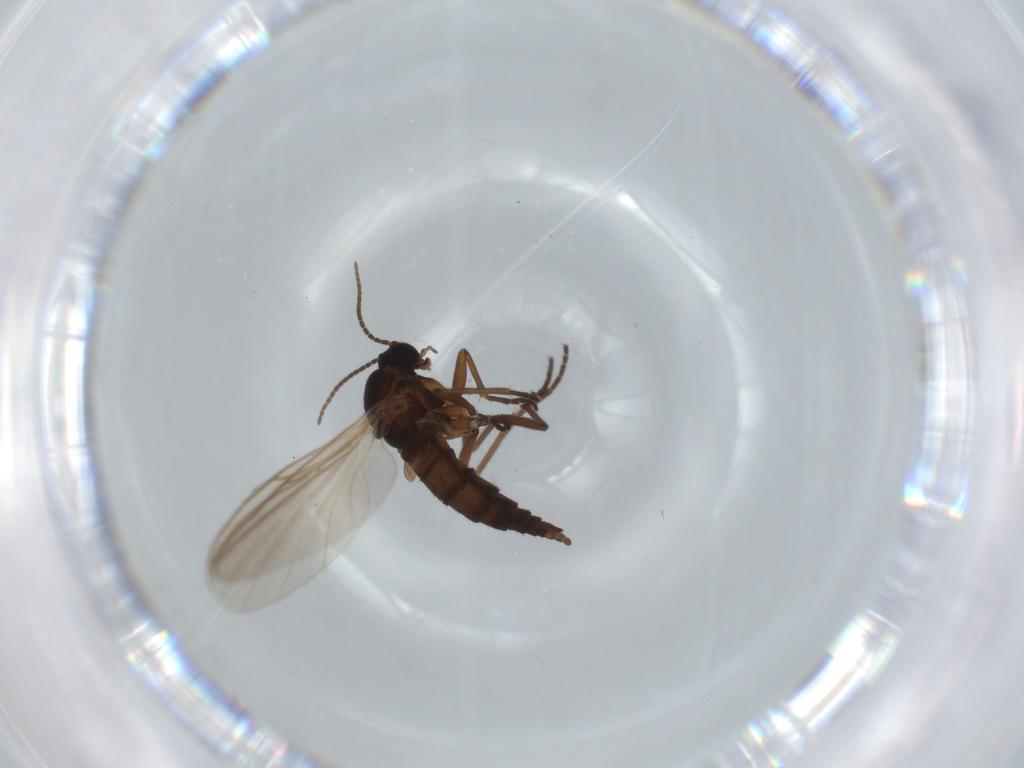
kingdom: Animalia
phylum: Arthropoda
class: Insecta
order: Diptera
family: Sciaridae
